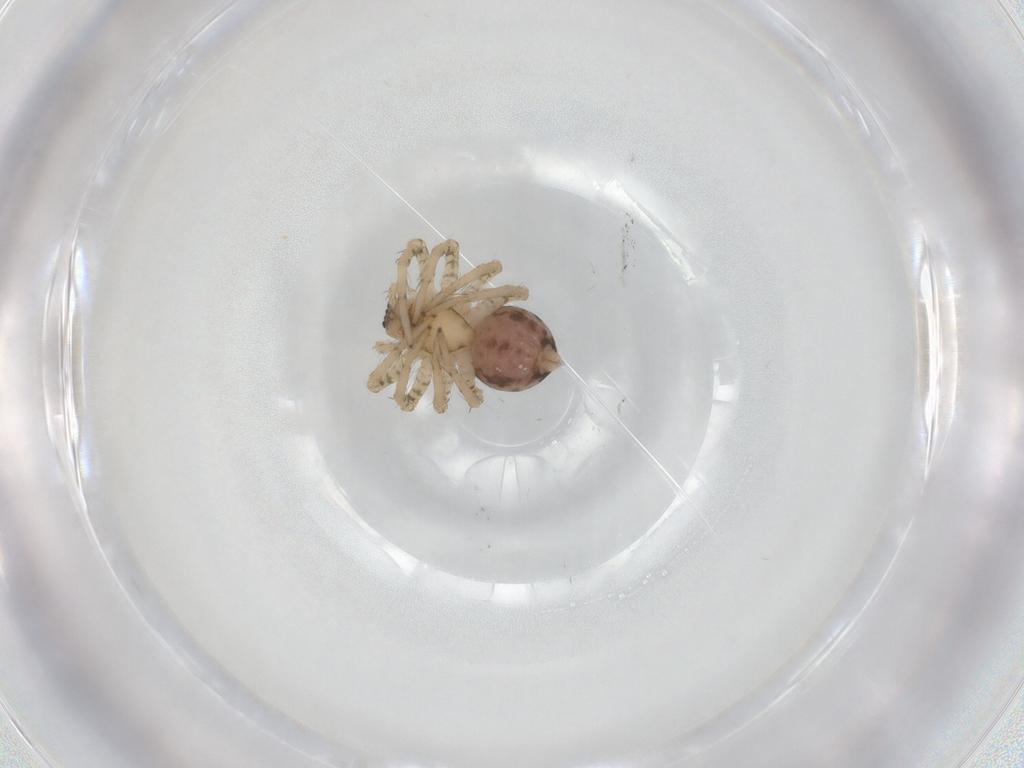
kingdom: Animalia
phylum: Arthropoda
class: Arachnida
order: Araneae
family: Amaurobiidae
